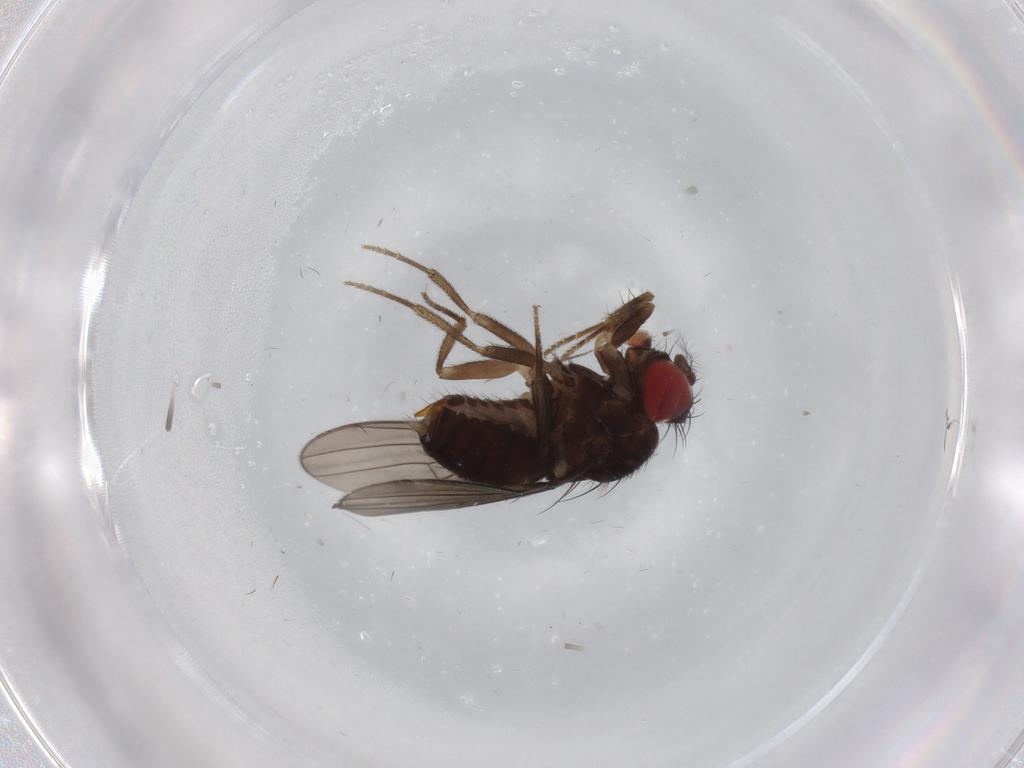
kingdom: Animalia
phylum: Arthropoda
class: Insecta
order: Diptera
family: Milichiidae
